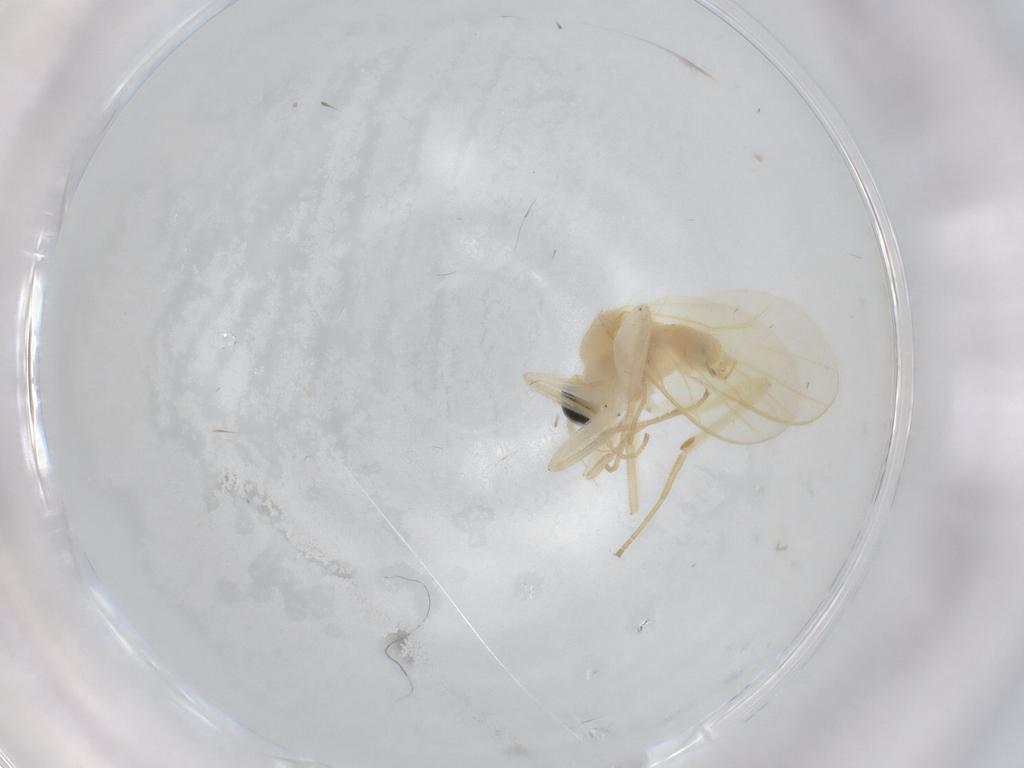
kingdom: Animalia
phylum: Arthropoda
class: Insecta
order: Diptera
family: Hybotidae
